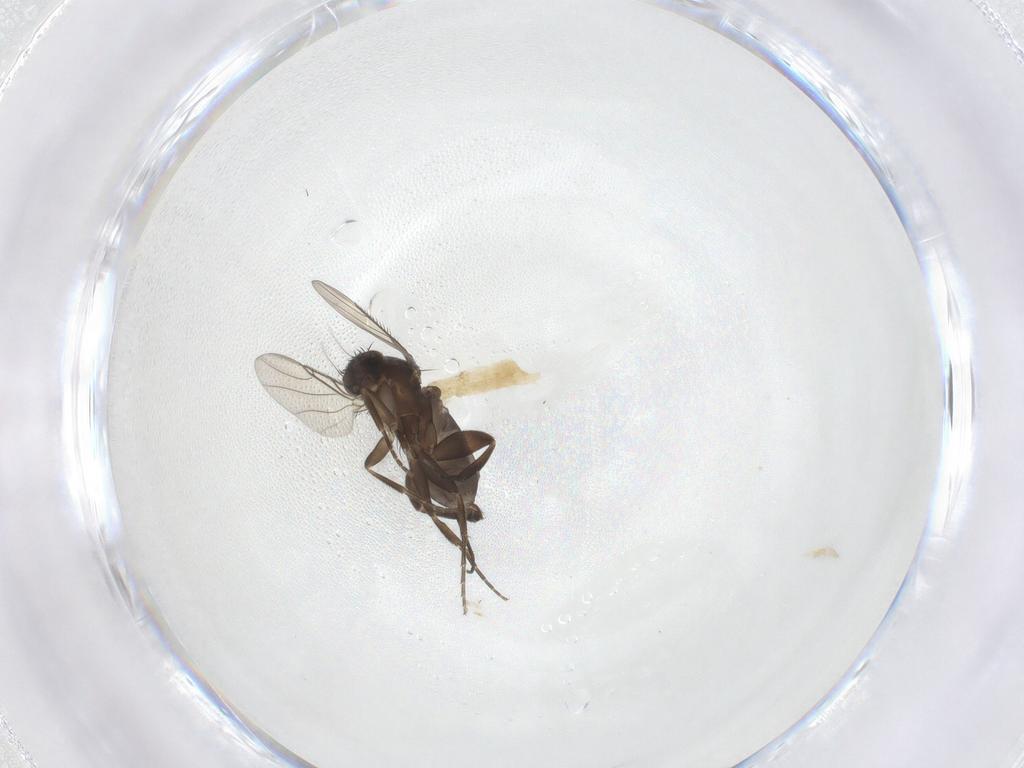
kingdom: Animalia
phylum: Arthropoda
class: Insecta
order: Diptera
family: Phoridae
